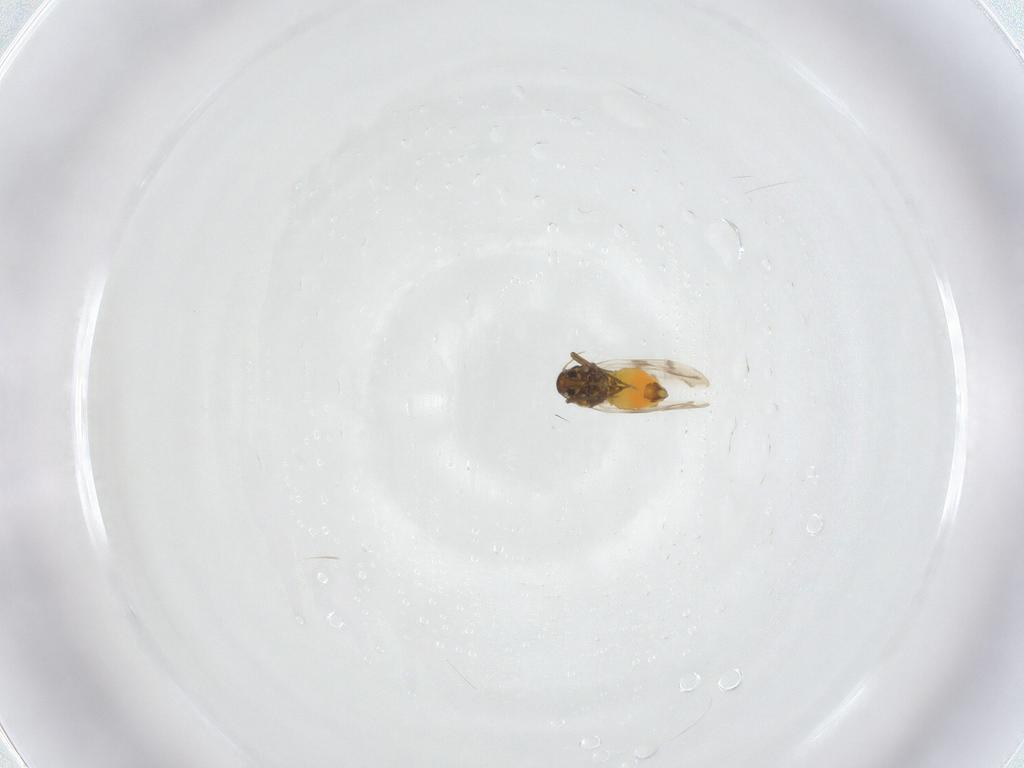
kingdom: Animalia
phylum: Arthropoda
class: Insecta
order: Hemiptera
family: Aleyrodidae
